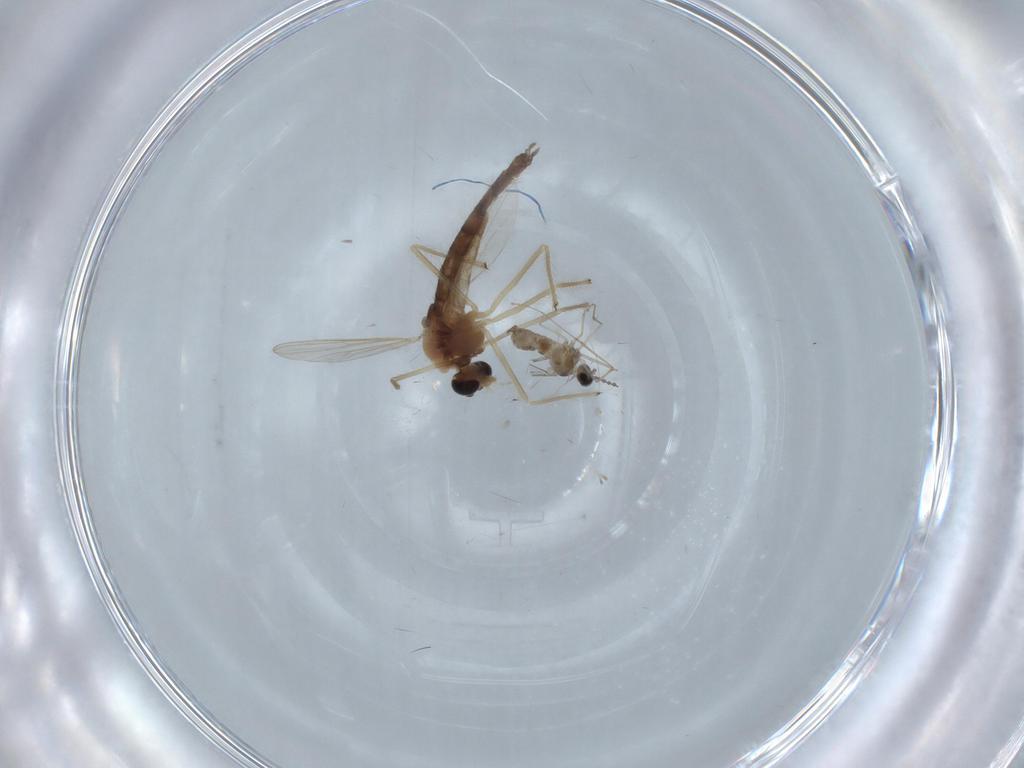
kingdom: Animalia
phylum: Arthropoda
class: Insecta
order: Diptera
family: Chironomidae
